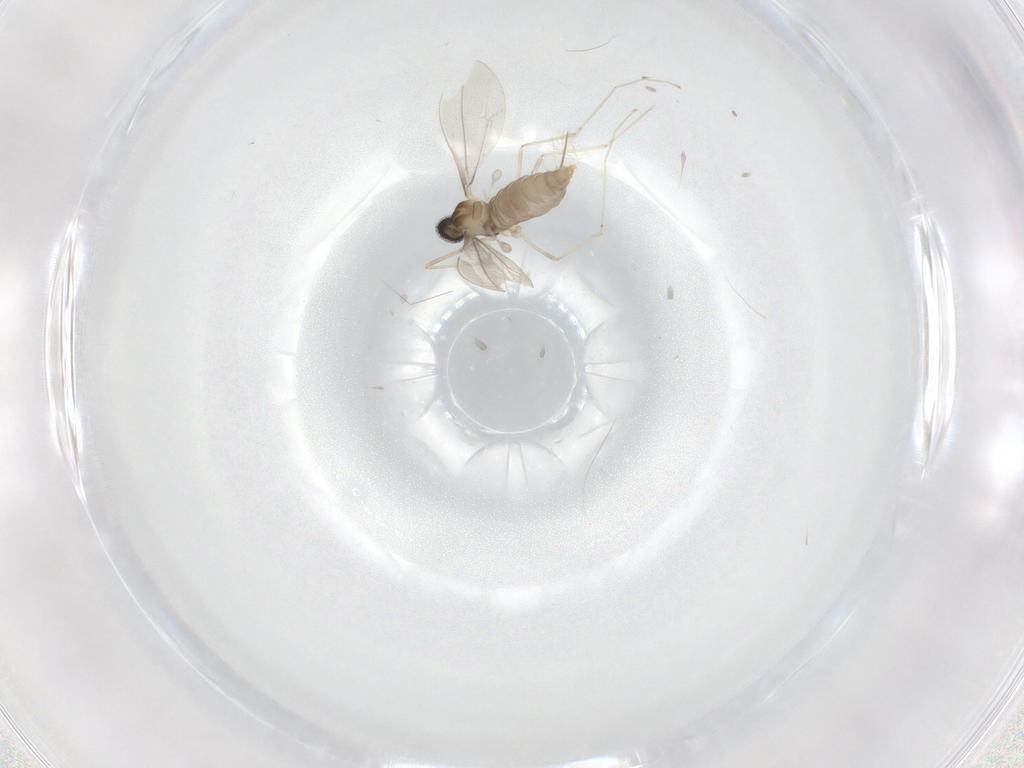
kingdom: Animalia
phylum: Arthropoda
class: Insecta
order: Diptera
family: Cecidomyiidae
